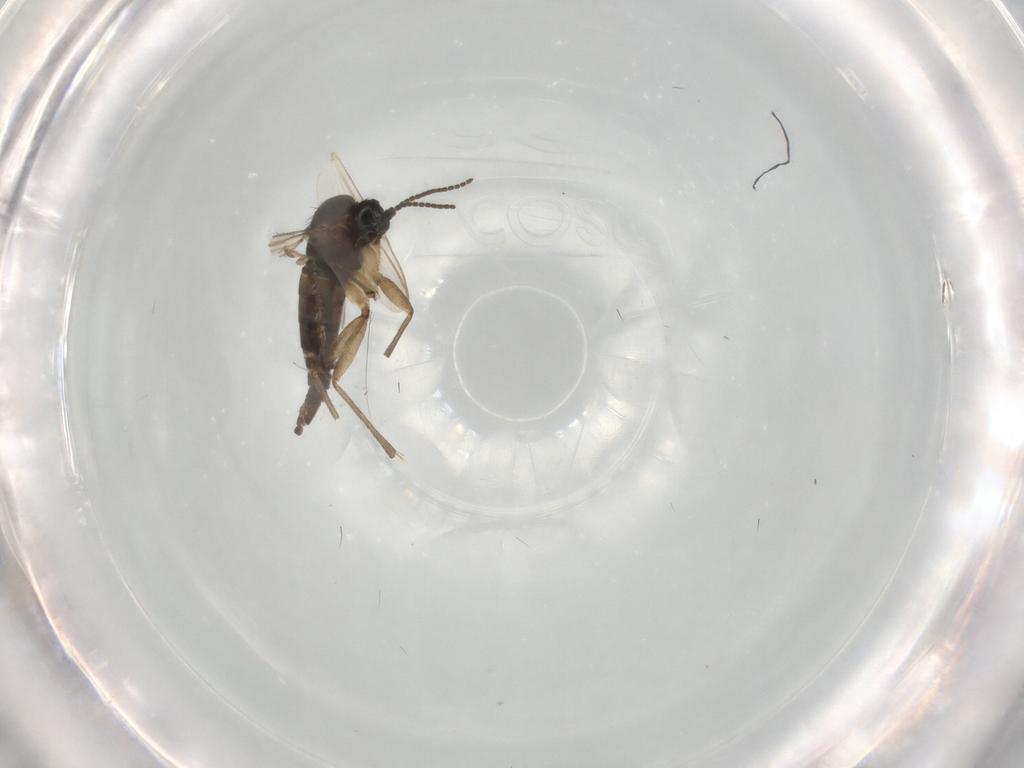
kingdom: Animalia
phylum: Arthropoda
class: Insecta
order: Diptera
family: Sciaridae
